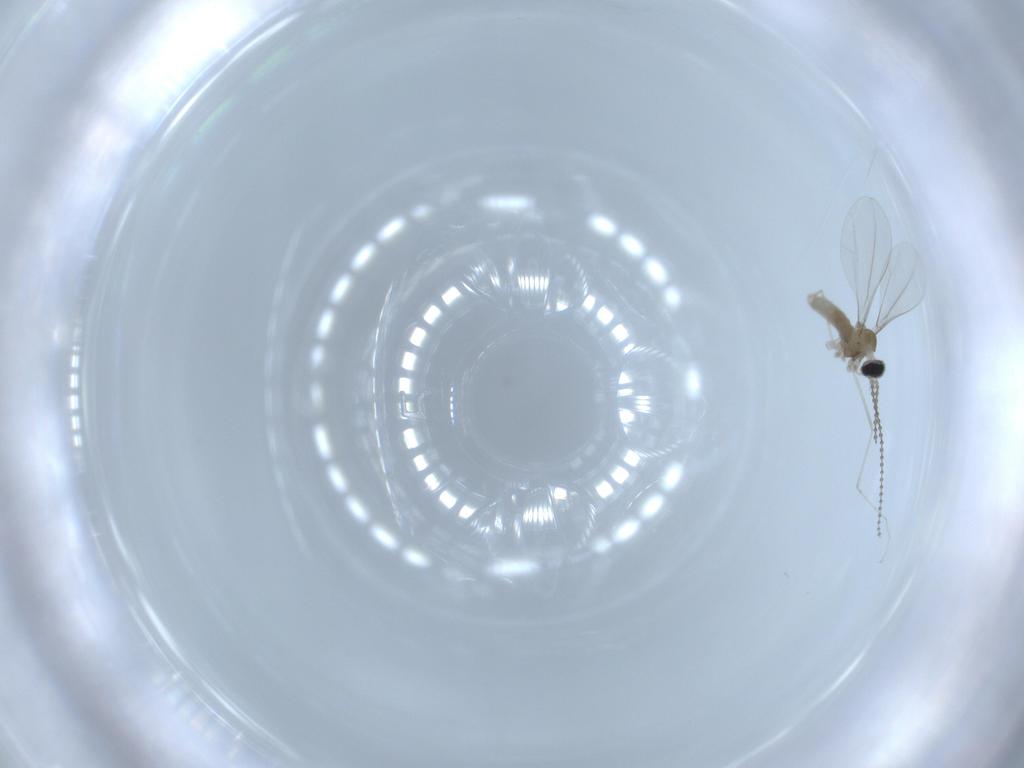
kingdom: Animalia
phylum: Arthropoda
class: Insecta
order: Diptera
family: Cecidomyiidae
